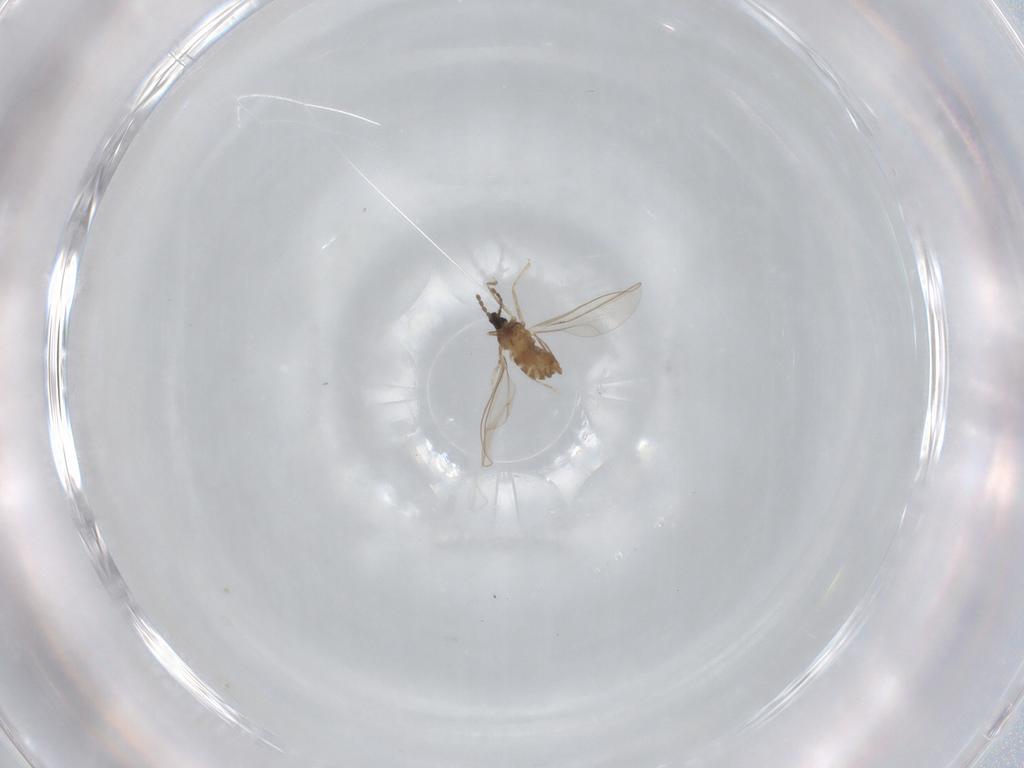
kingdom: Animalia
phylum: Arthropoda
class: Insecta
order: Diptera
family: Cecidomyiidae
